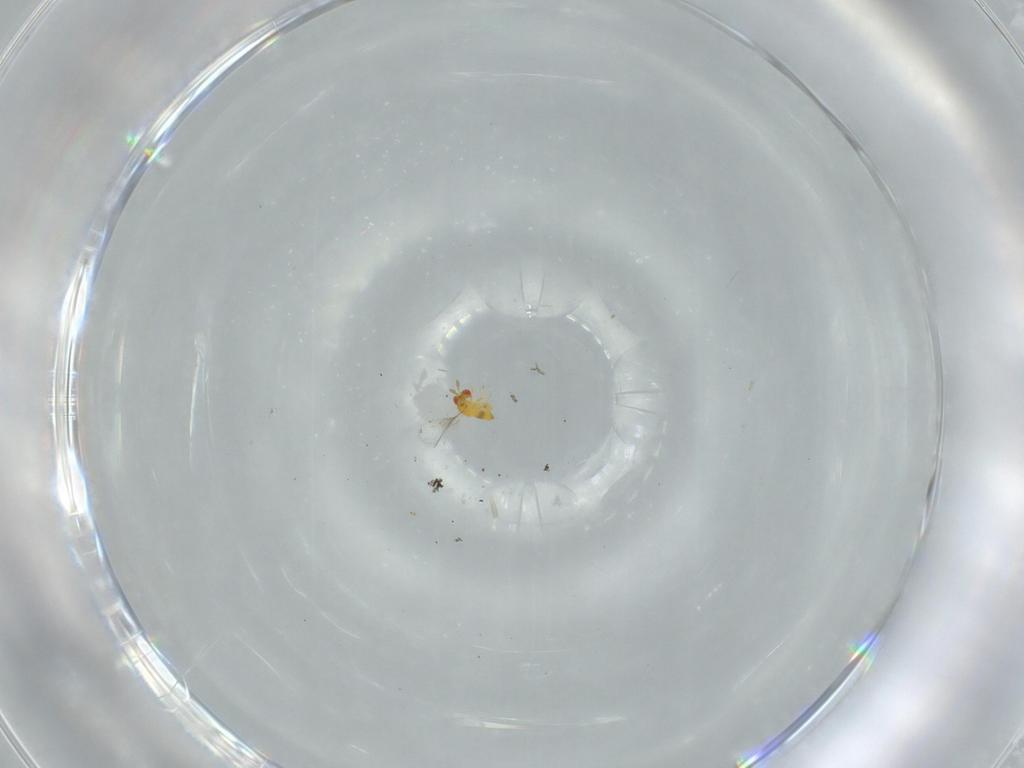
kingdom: Animalia
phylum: Arthropoda
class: Insecta
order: Hymenoptera
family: Trichogrammatidae
